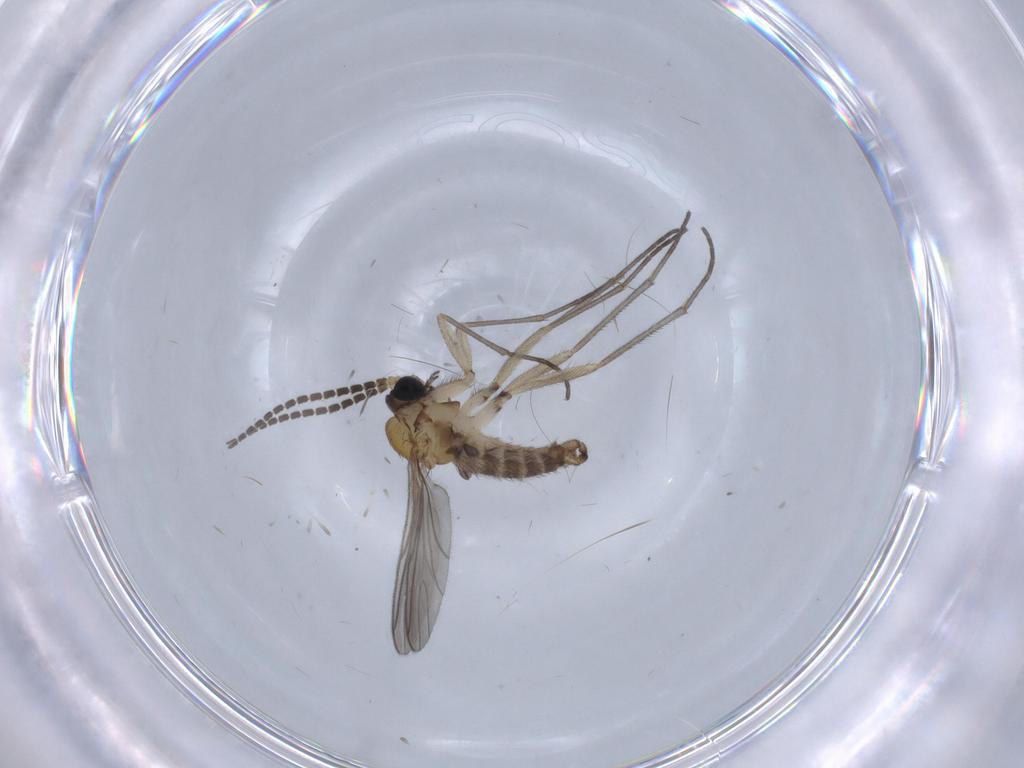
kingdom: Animalia
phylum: Arthropoda
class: Insecta
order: Diptera
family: Sciaridae
